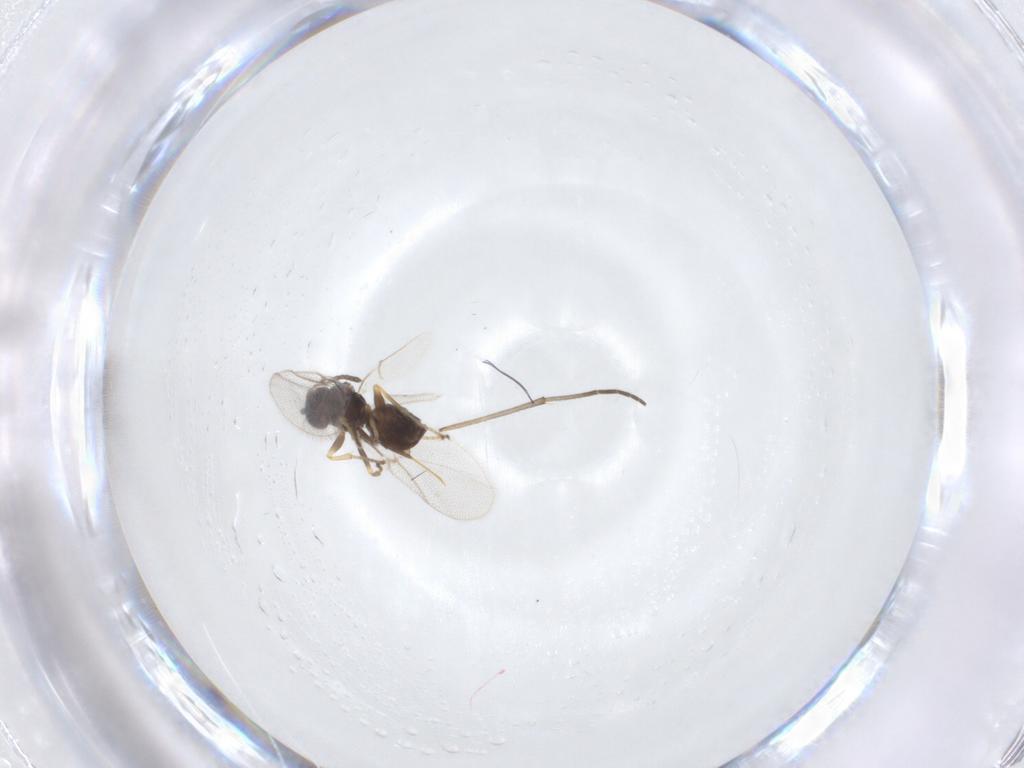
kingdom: Animalia
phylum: Arthropoda
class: Insecta
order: Hymenoptera
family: Cynipidae
